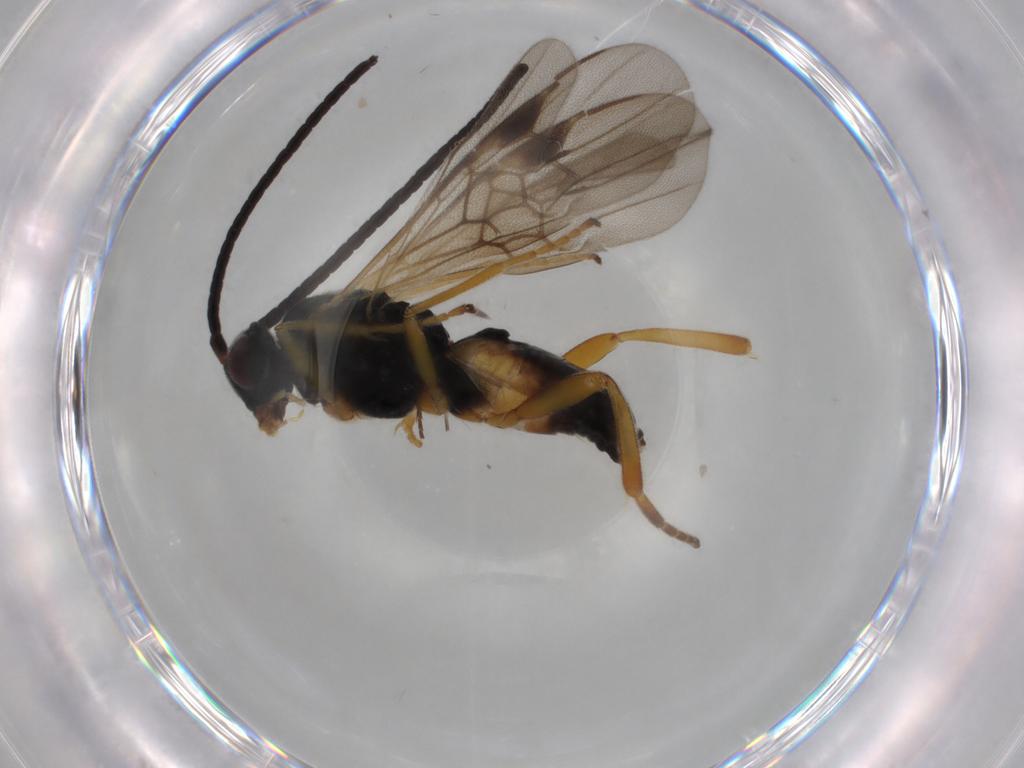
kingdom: Animalia
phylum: Arthropoda
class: Insecta
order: Hymenoptera
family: Braconidae
